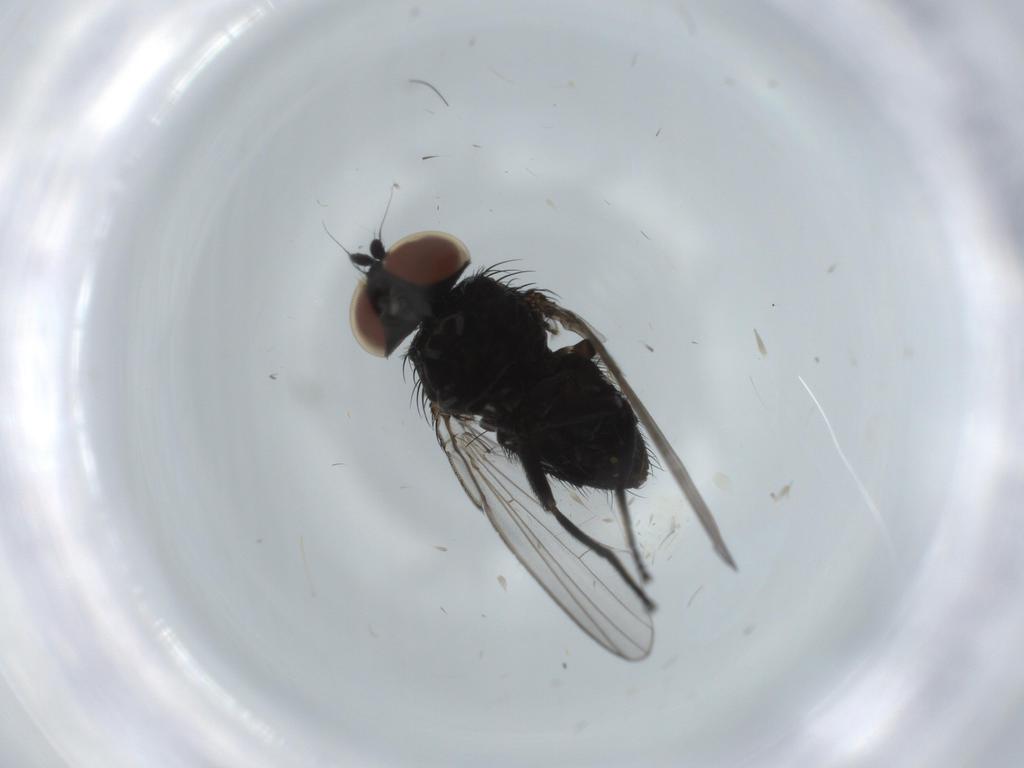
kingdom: Animalia
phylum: Arthropoda
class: Insecta
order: Diptera
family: Milichiidae
